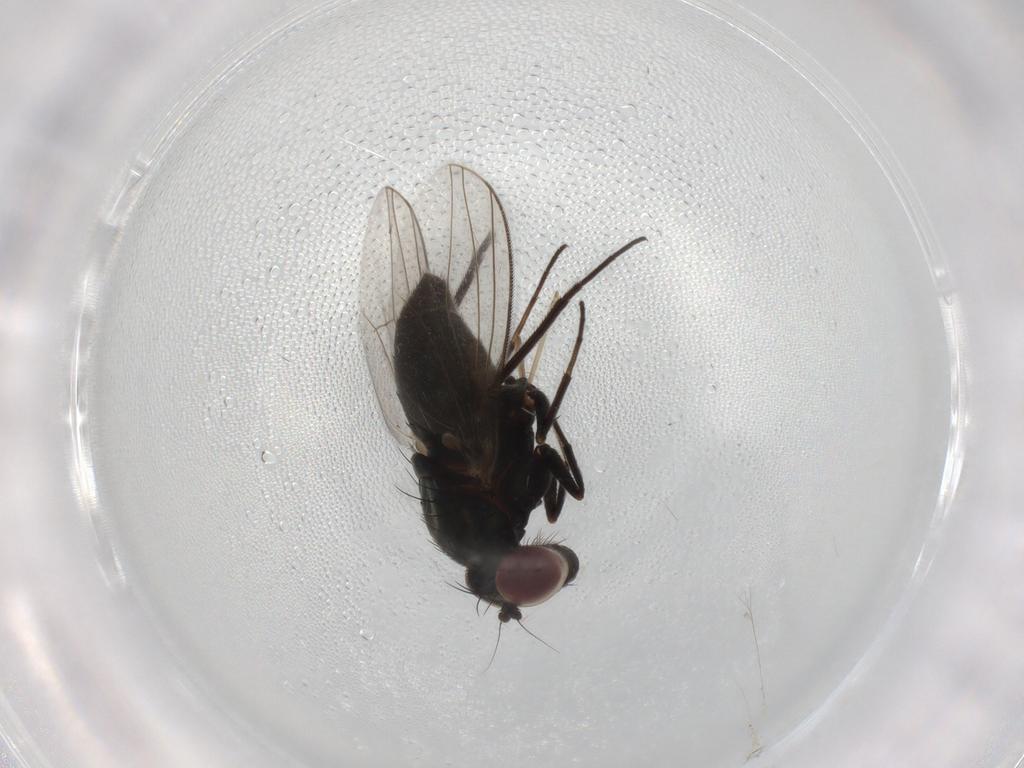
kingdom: Animalia
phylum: Arthropoda
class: Insecta
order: Diptera
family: Cecidomyiidae
